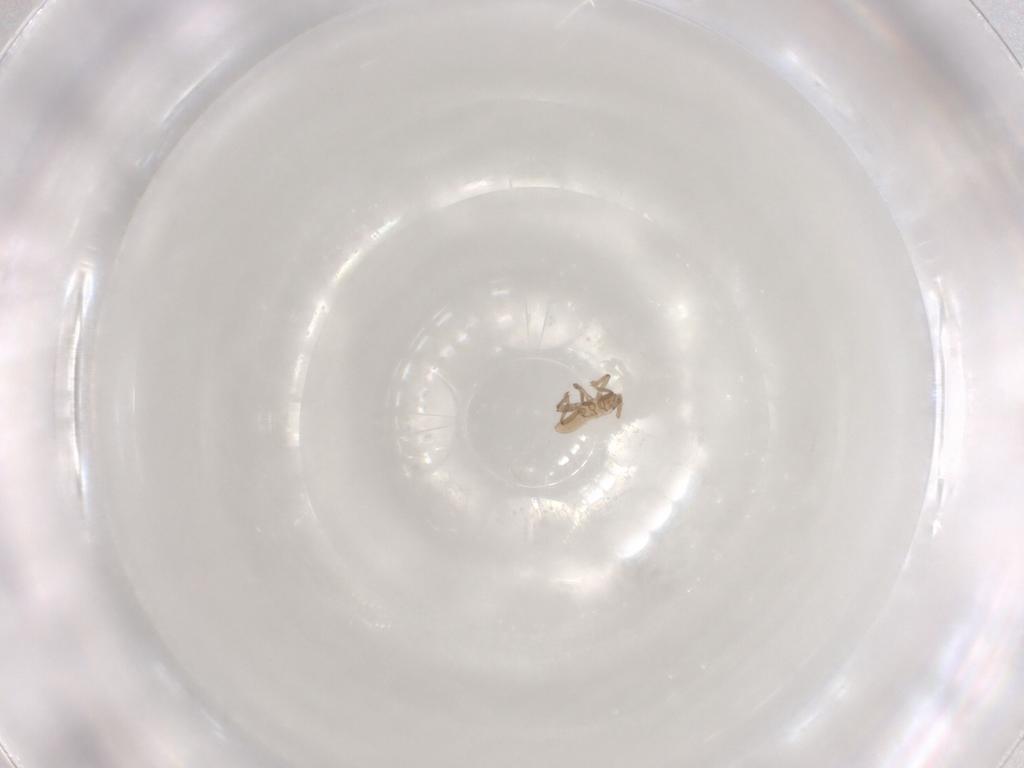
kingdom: Animalia
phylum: Arthropoda
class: Insecta
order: Hemiptera
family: Aphididae
